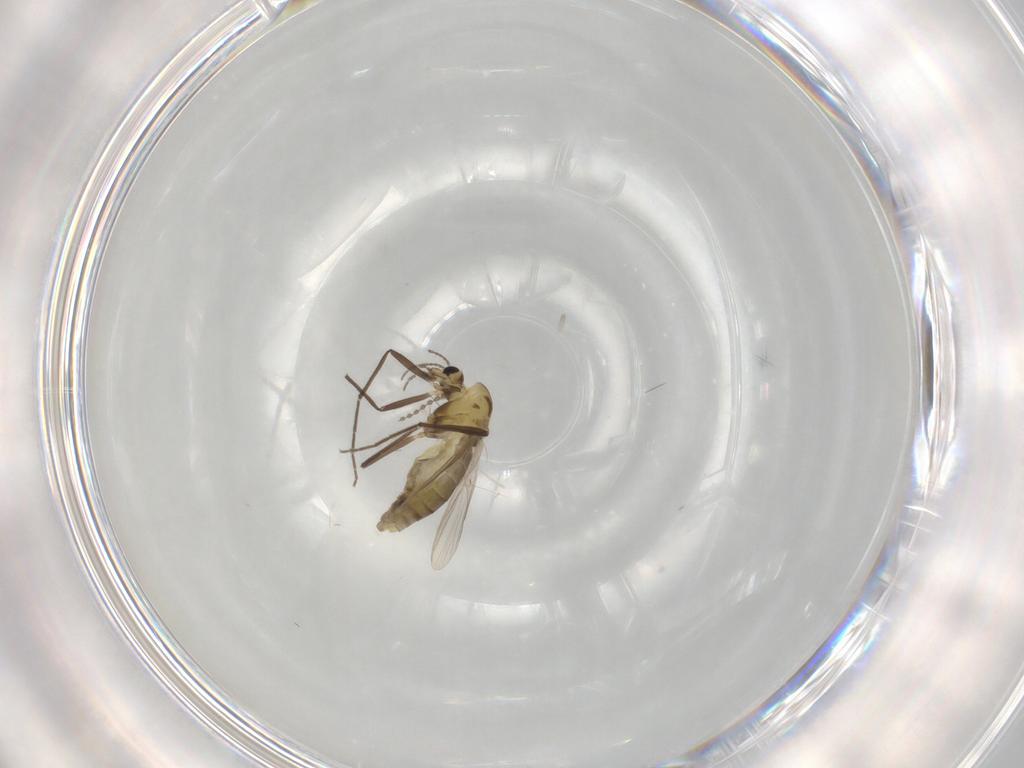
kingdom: Animalia
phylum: Arthropoda
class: Insecta
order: Diptera
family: Chironomidae
